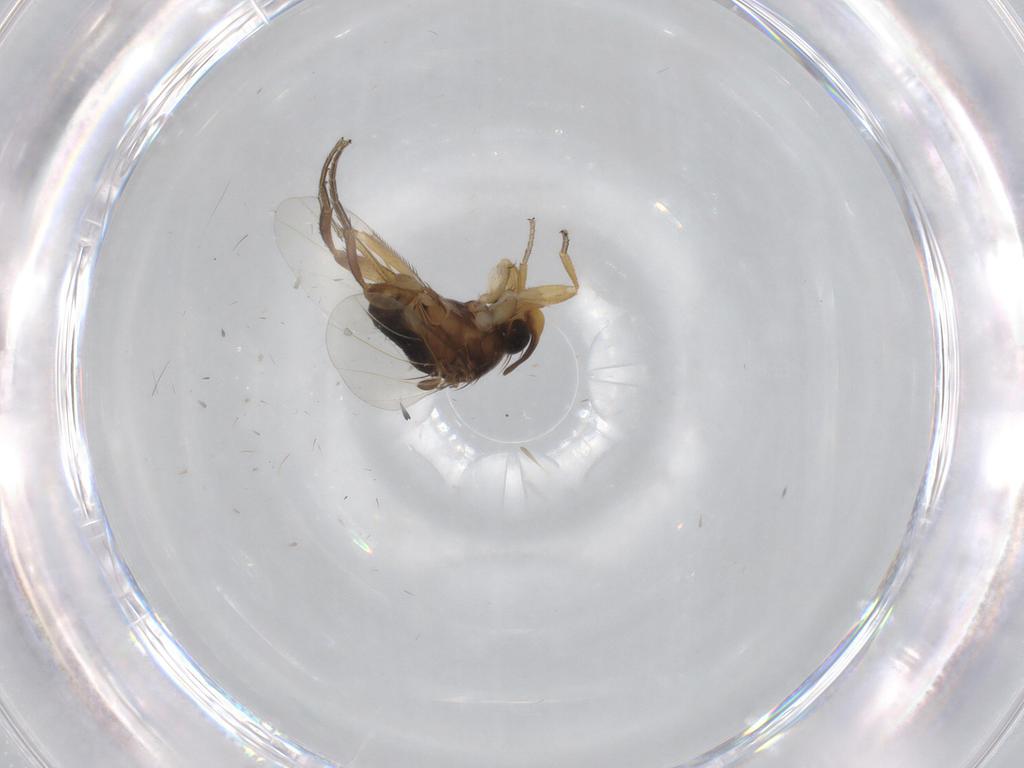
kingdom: Animalia
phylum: Arthropoda
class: Insecta
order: Diptera
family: Phoridae
